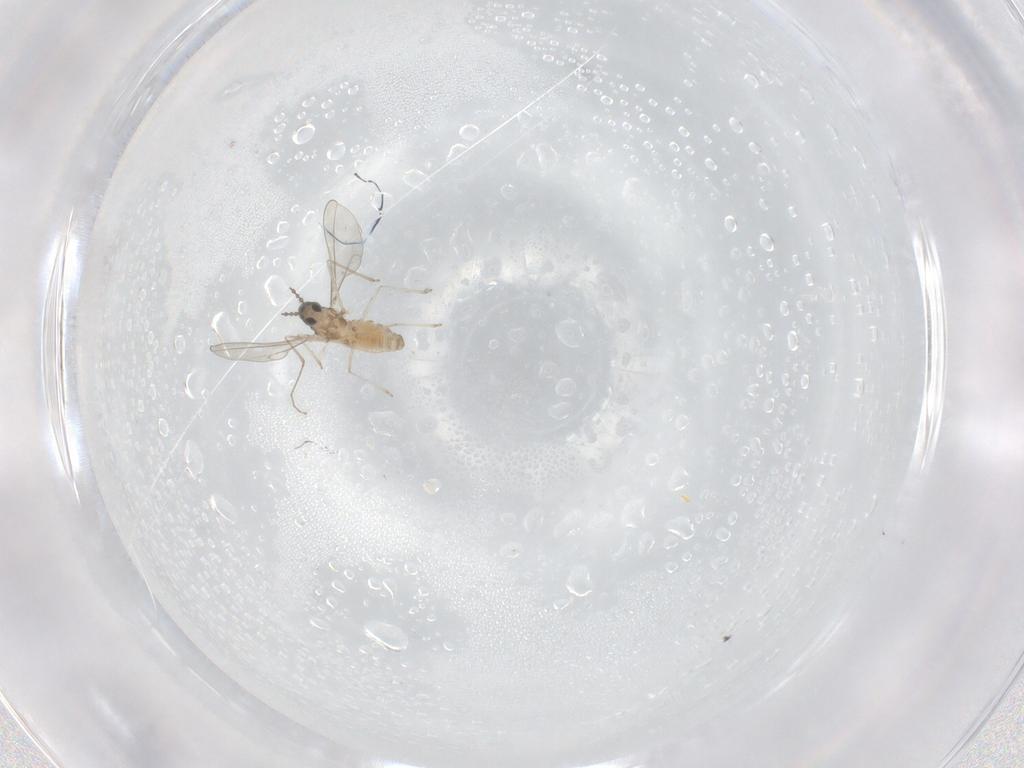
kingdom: Animalia
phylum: Arthropoda
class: Insecta
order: Diptera
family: Cecidomyiidae
